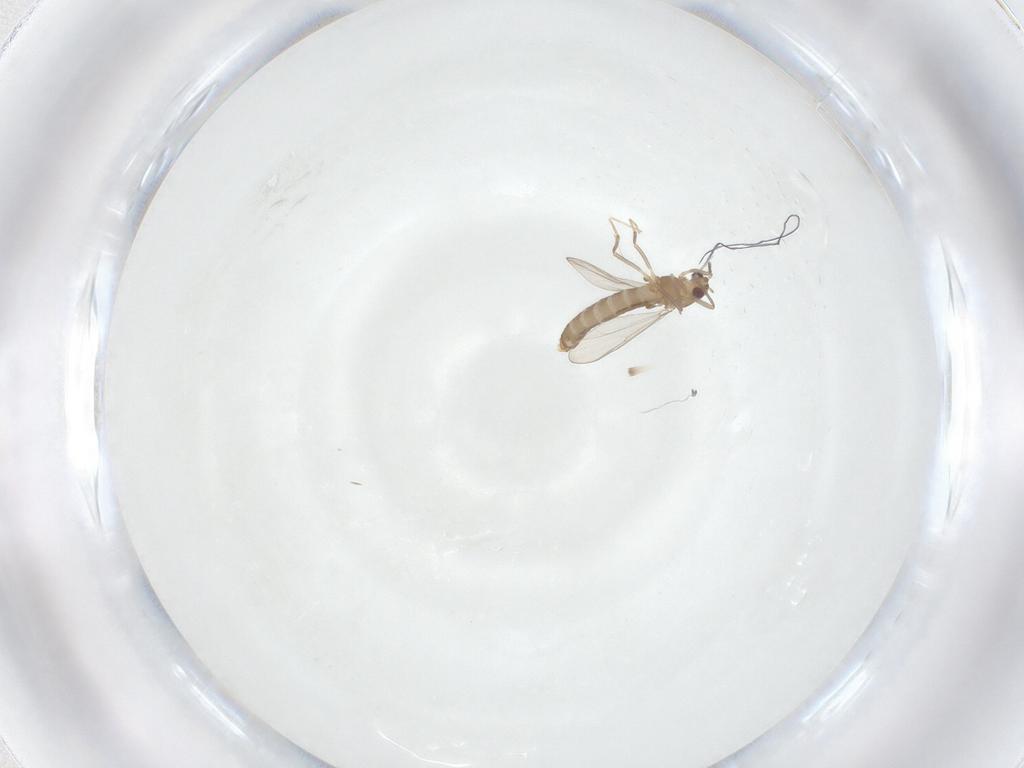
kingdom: Animalia
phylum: Arthropoda
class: Insecta
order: Diptera
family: Chironomidae
